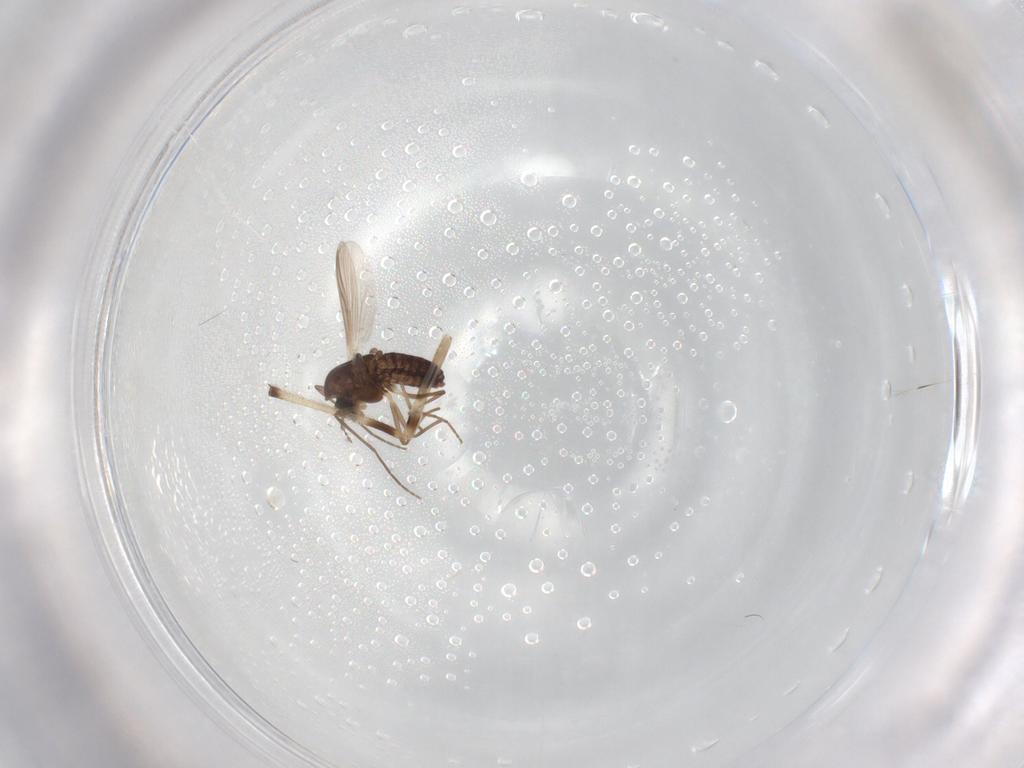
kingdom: Animalia
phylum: Arthropoda
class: Insecta
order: Diptera
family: Chironomidae
